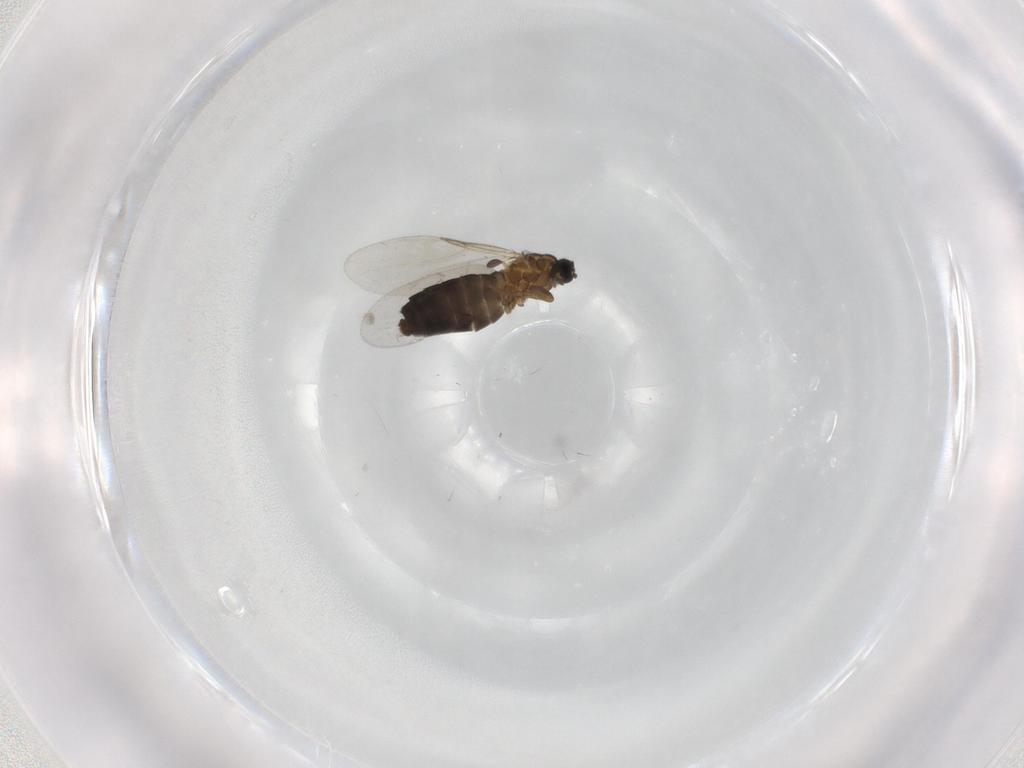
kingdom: Animalia
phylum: Arthropoda
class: Insecta
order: Diptera
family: Scatopsidae
